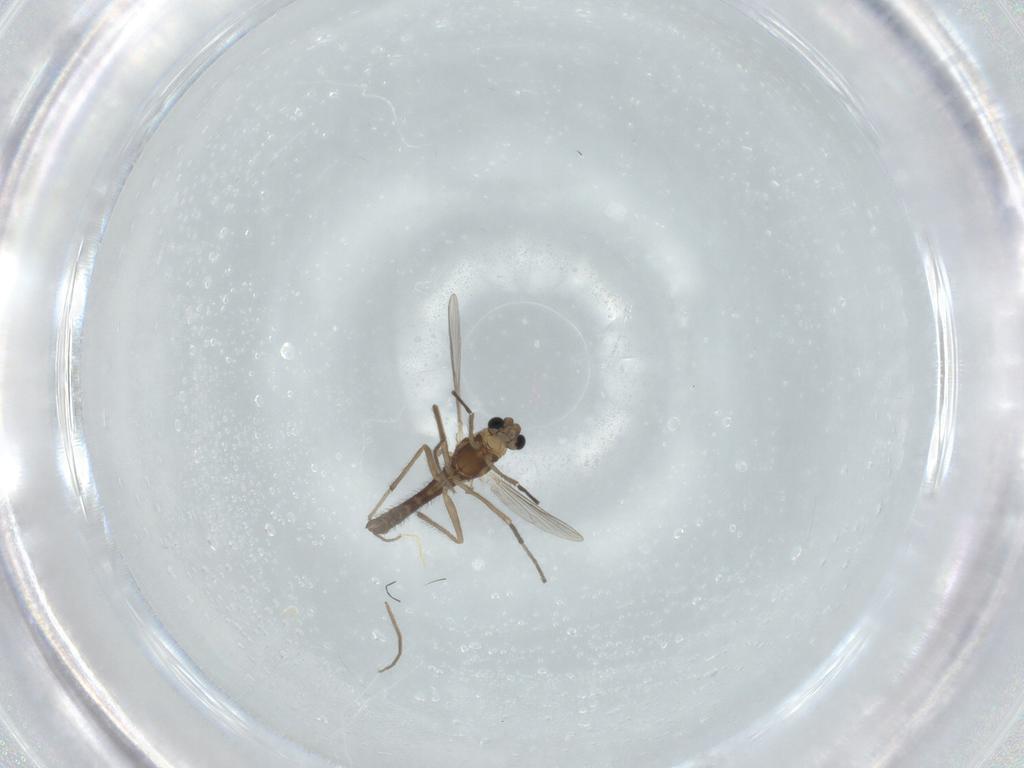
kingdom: Animalia
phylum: Arthropoda
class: Insecta
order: Diptera
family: Chironomidae
